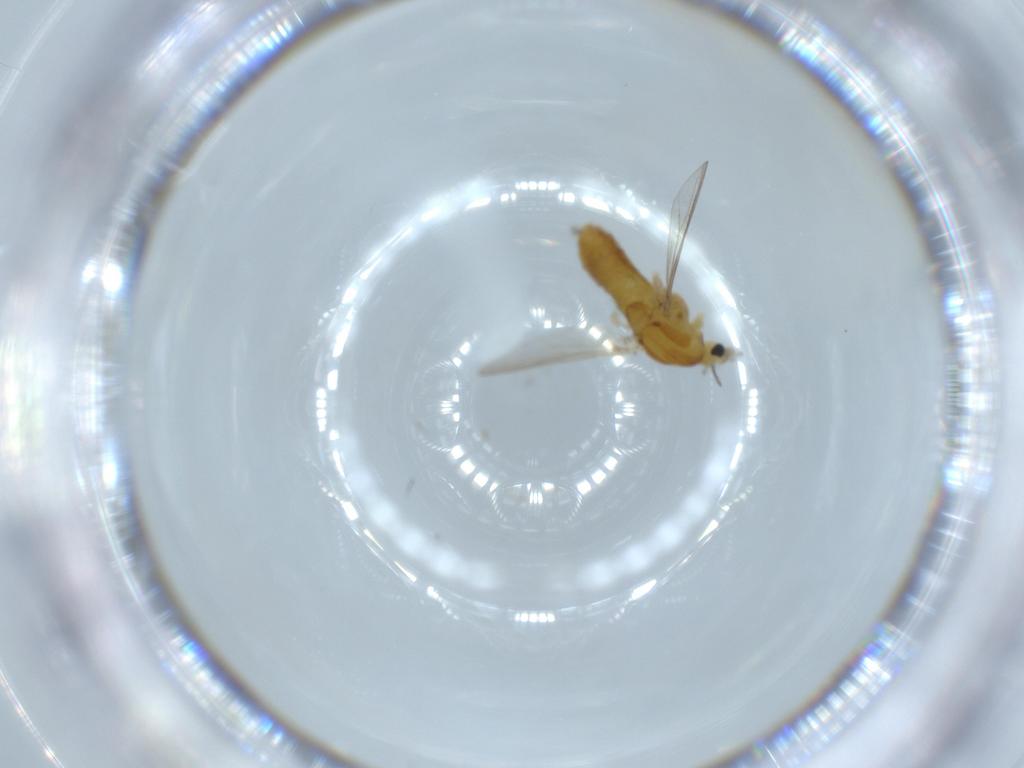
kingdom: Animalia
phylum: Arthropoda
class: Insecta
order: Diptera
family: Chironomidae
